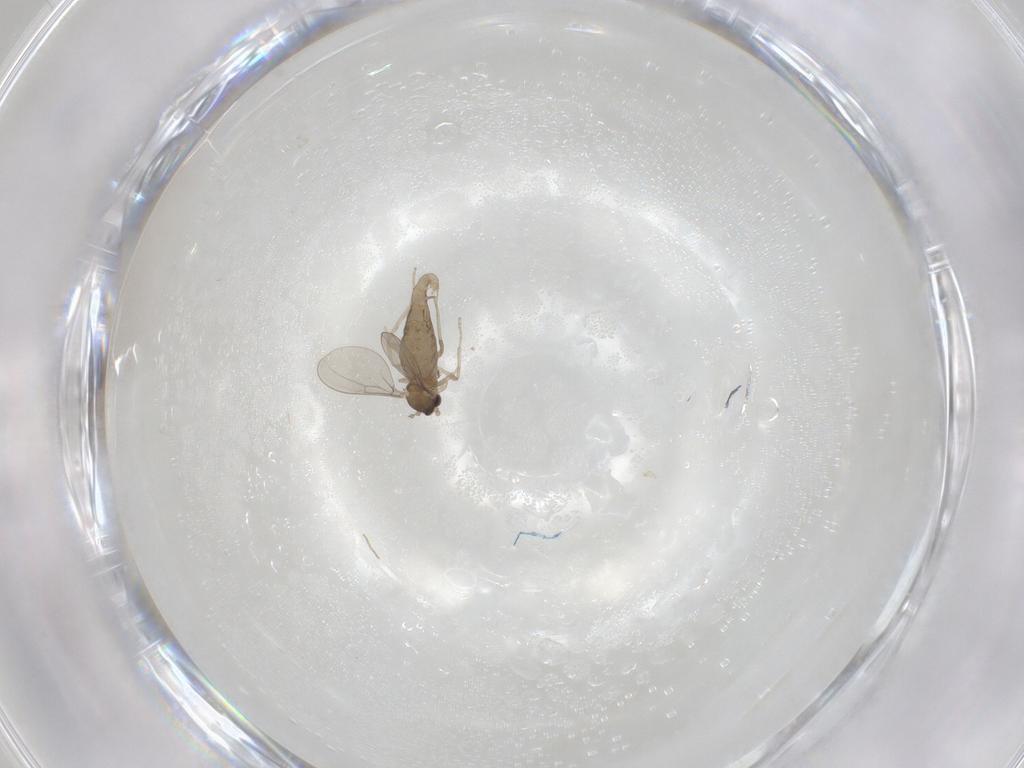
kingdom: Animalia
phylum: Arthropoda
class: Insecta
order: Diptera
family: Cecidomyiidae
